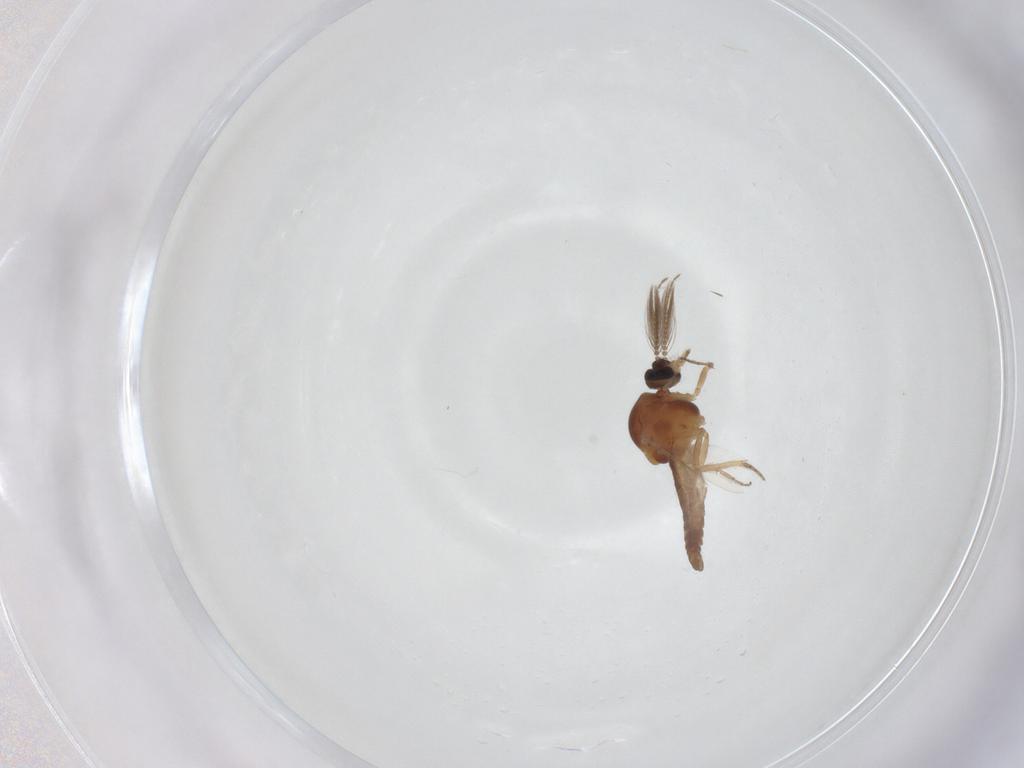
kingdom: Animalia
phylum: Arthropoda
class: Insecta
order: Diptera
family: Ceratopogonidae
